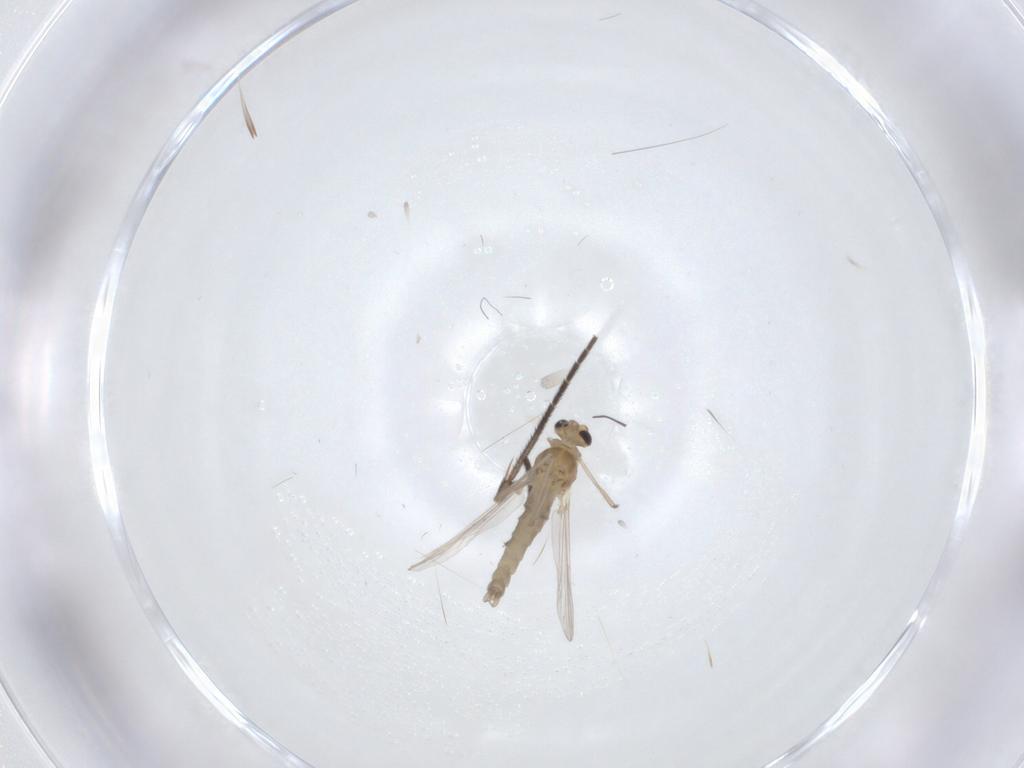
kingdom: Animalia
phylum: Arthropoda
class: Insecta
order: Diptera
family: Chironomidae
